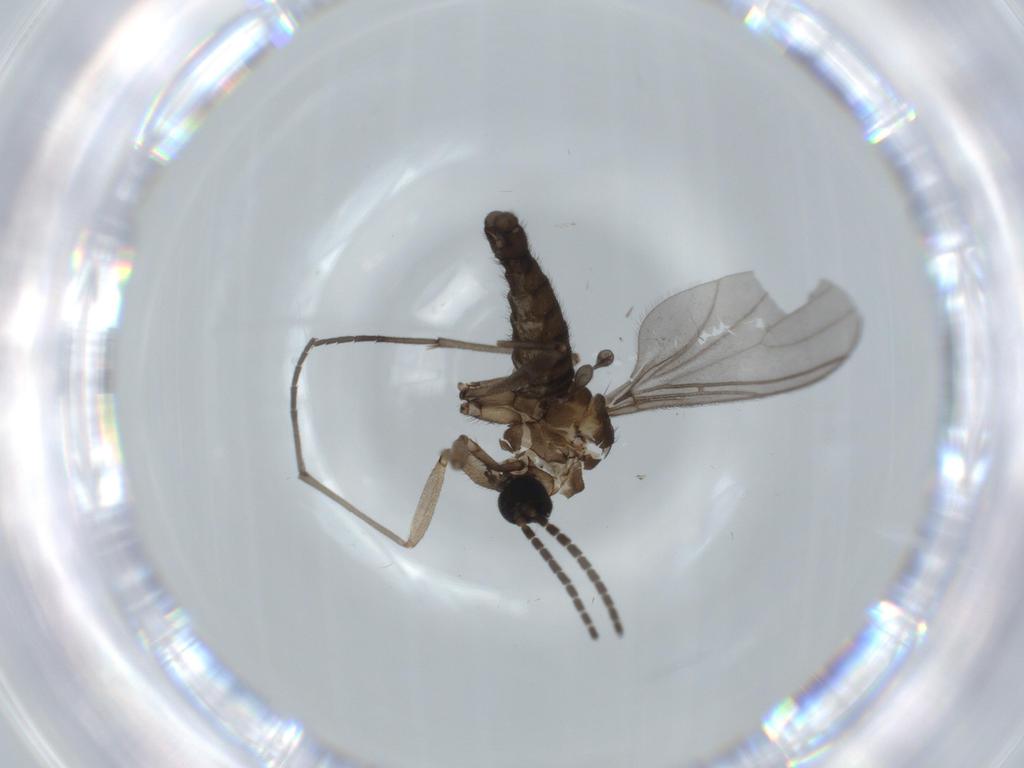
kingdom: Animalia
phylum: Arthropoda
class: Insecta
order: Diptera
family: Sciaridae
